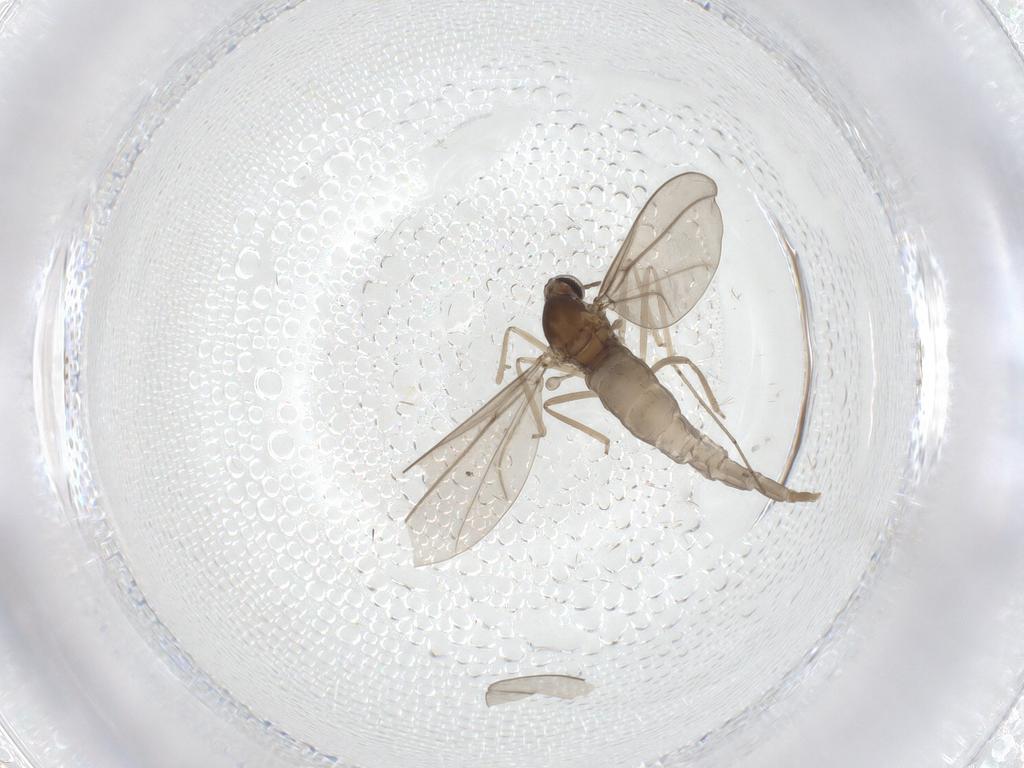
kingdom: Animalia
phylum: Arthropoda
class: Insecta
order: Diptera
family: Cecidomyiidae
